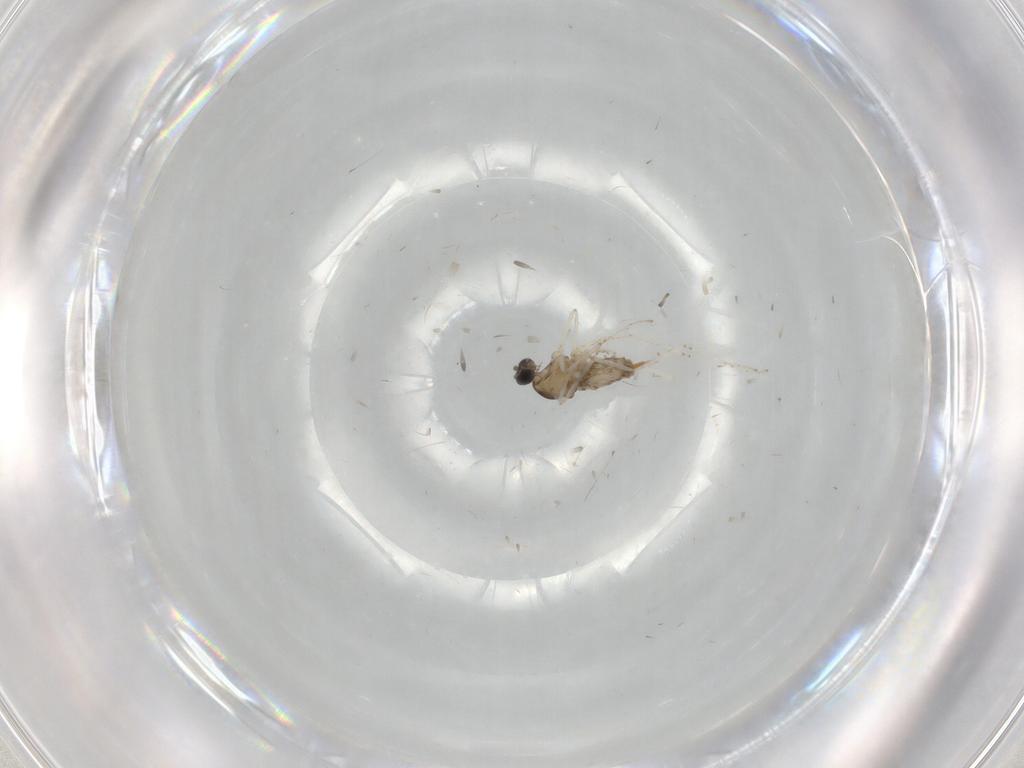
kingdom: Animalia
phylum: Arthropoda
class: Insecta
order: Diptera
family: Cecidomyiidae
